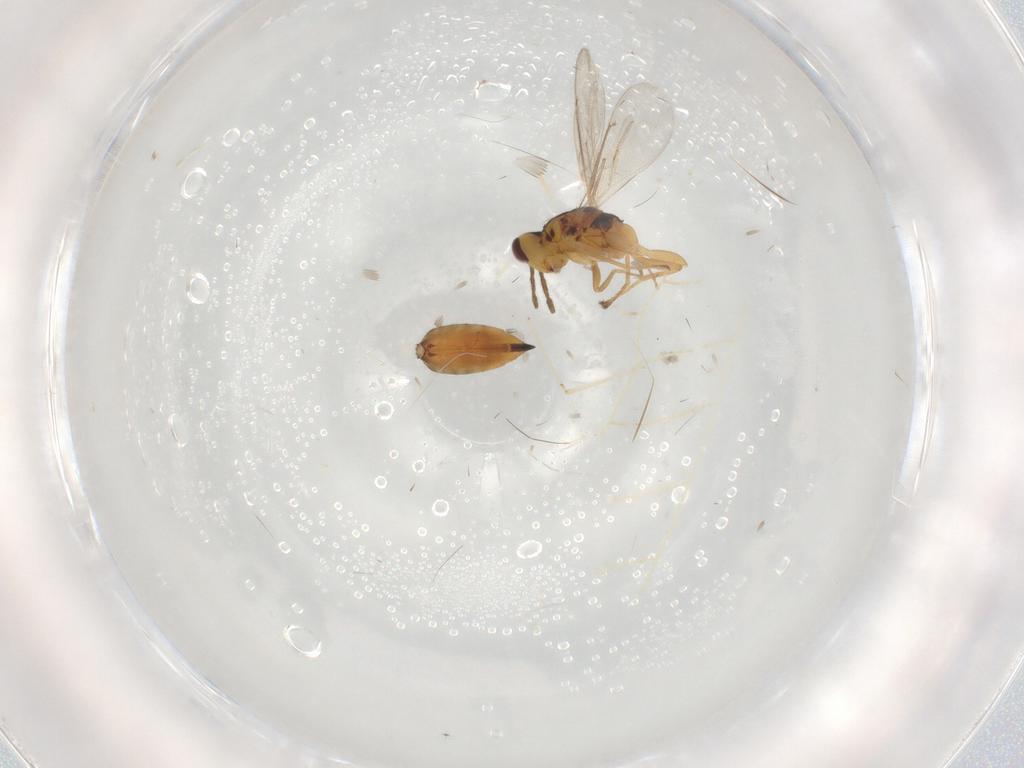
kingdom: Animalia
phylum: Arthropoda
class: Insecta
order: Hymenoptera
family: Eulophidae
